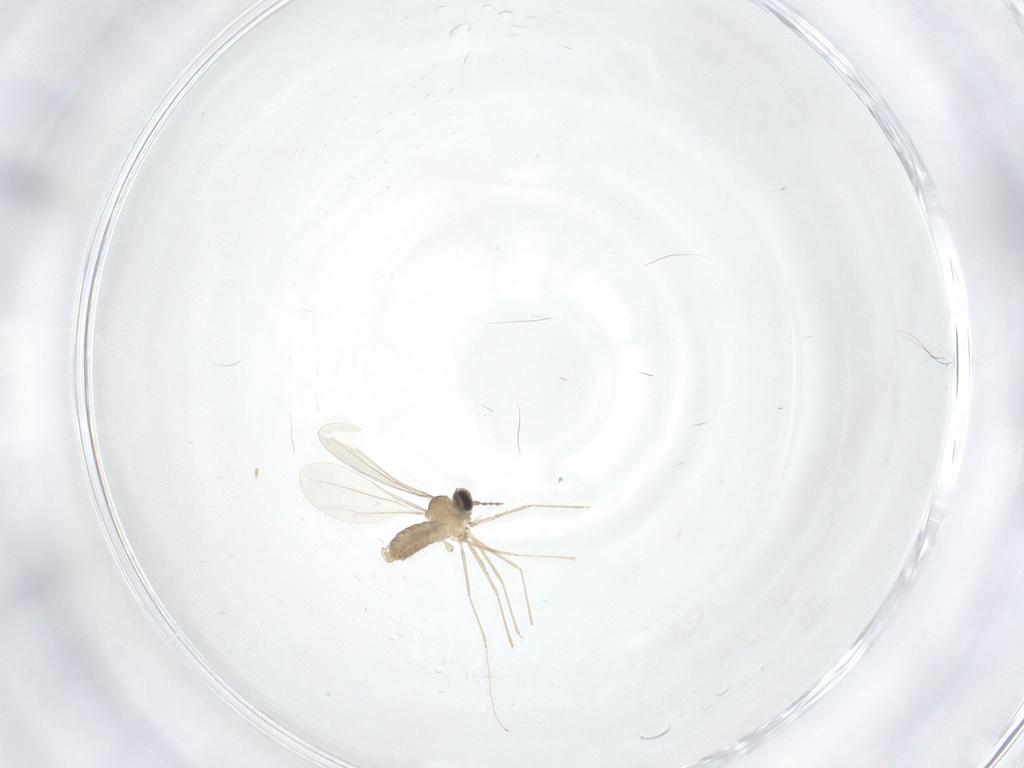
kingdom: Animalia
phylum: Arthropoda
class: Insecta
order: Diptera
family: Cecidomyiidae
